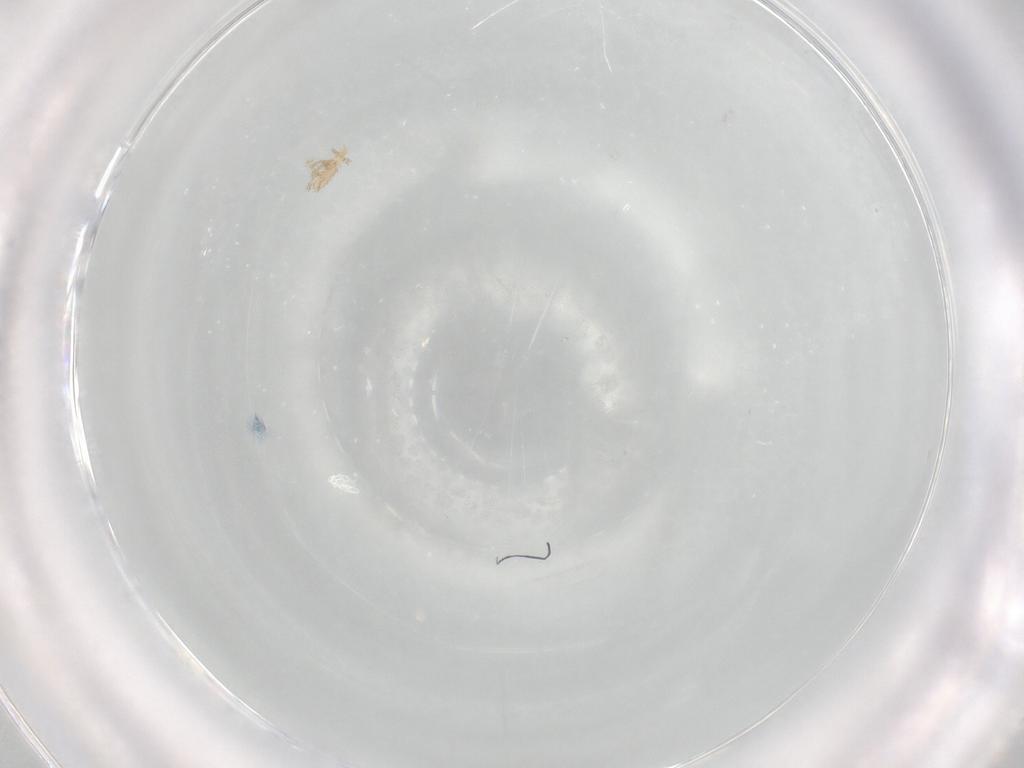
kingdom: Animalia
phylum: Arthropoda
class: Arachnida
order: Trombidiformes
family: Erythraeidae
